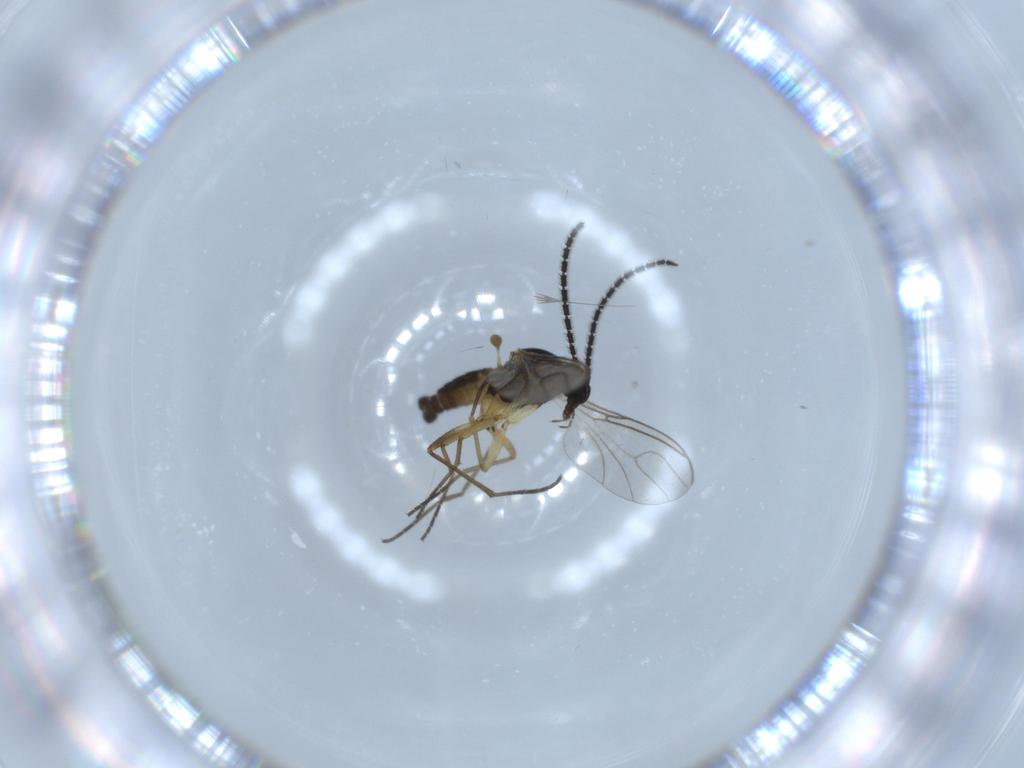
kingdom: Animalia
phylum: Arthropoda
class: Insecta
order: Diptera
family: Sciaridae
